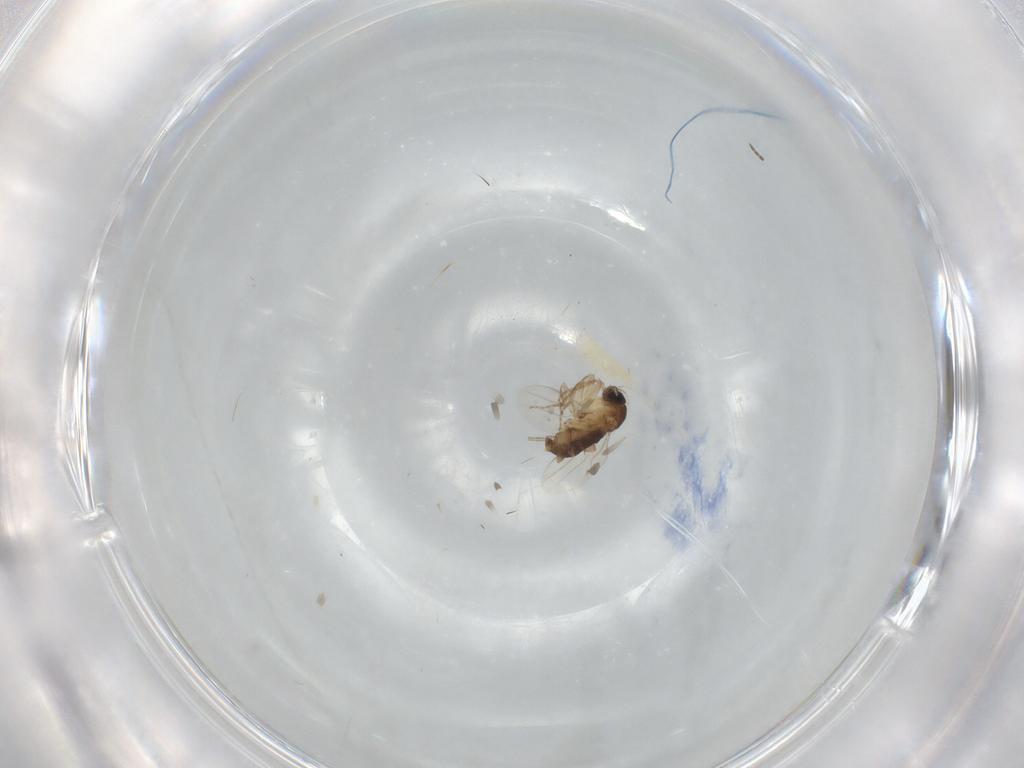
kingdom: Animalia
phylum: Arthropoda
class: Insecta
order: Diptera
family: Phoridae
